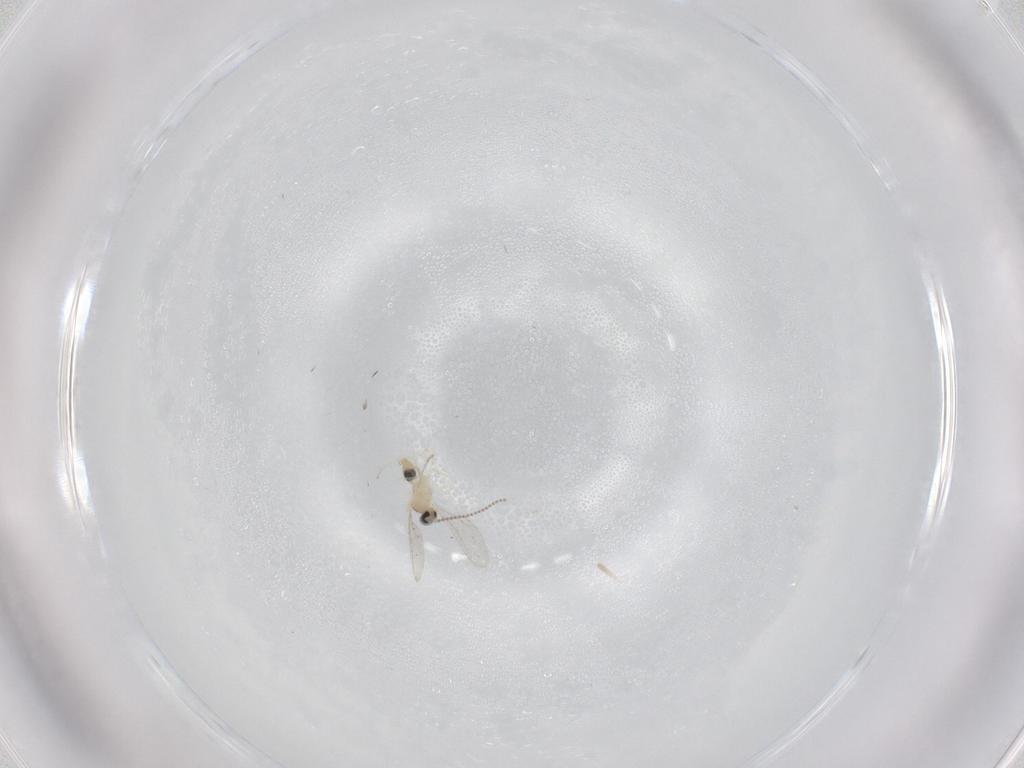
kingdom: Animalia
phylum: Arthropoda
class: Insecta
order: Diptera
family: Cecidomyiidae
